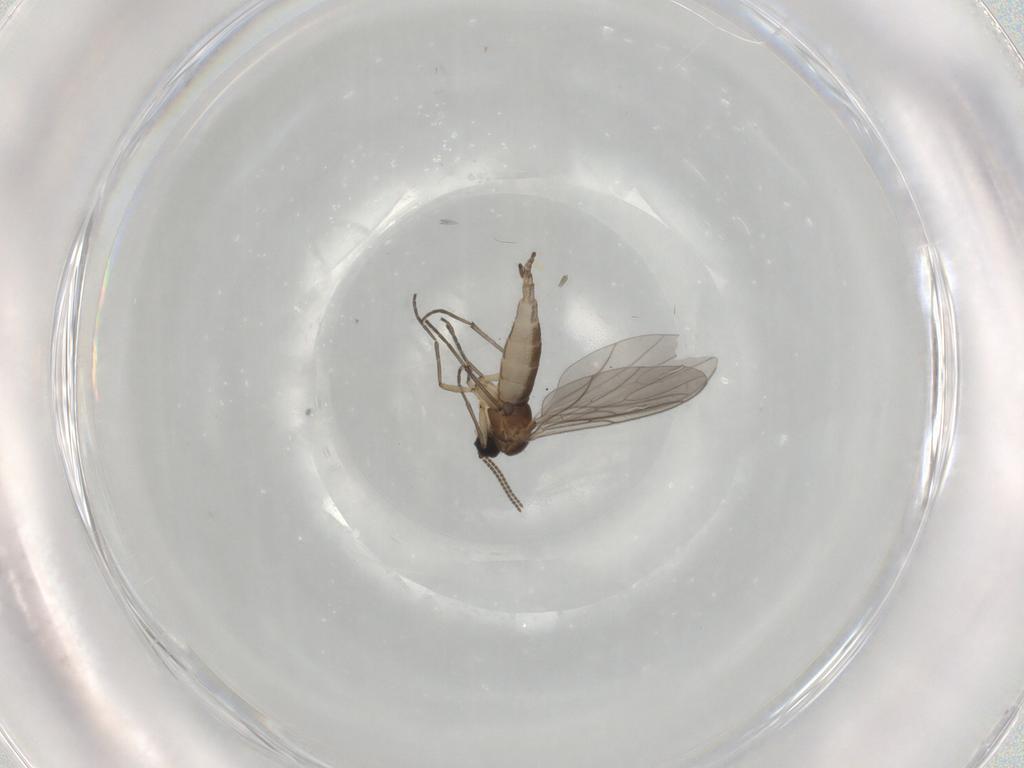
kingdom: Animalia
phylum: Arthropoda
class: Insecta
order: Diptera
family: Sciaridae
